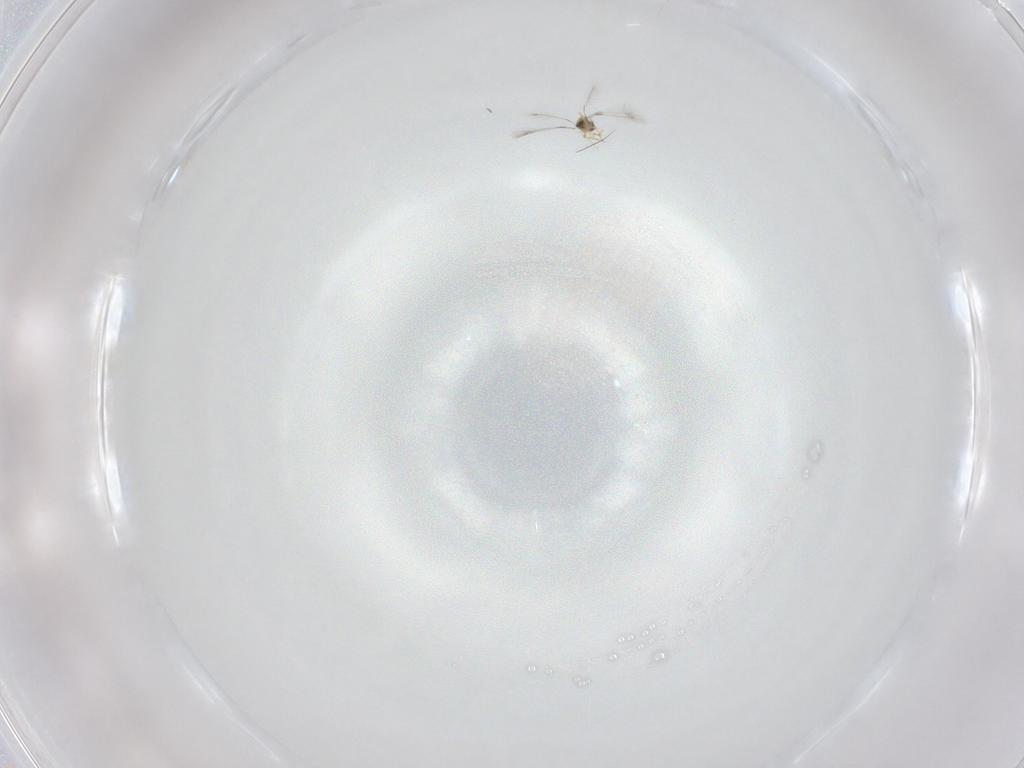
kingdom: Animalia
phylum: Arthropoda
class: Insecta
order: Hymenoptera
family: Mymaridae
